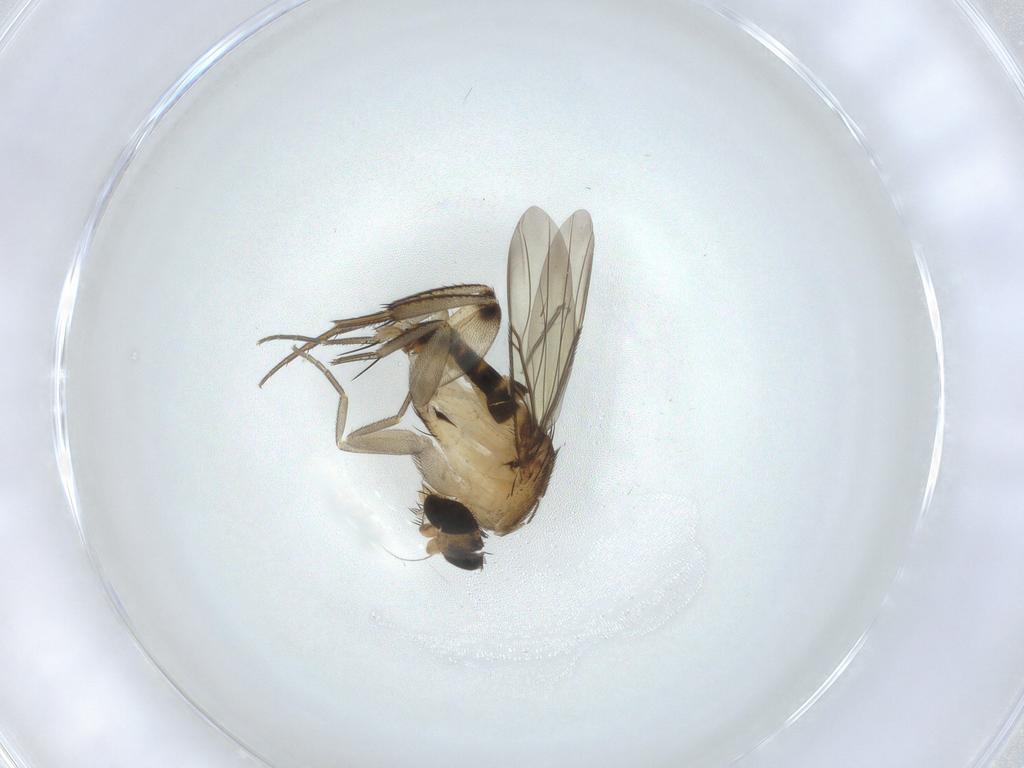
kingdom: Animalia
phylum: Arthropoda
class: Insecta
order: Diptera
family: Phoridae
